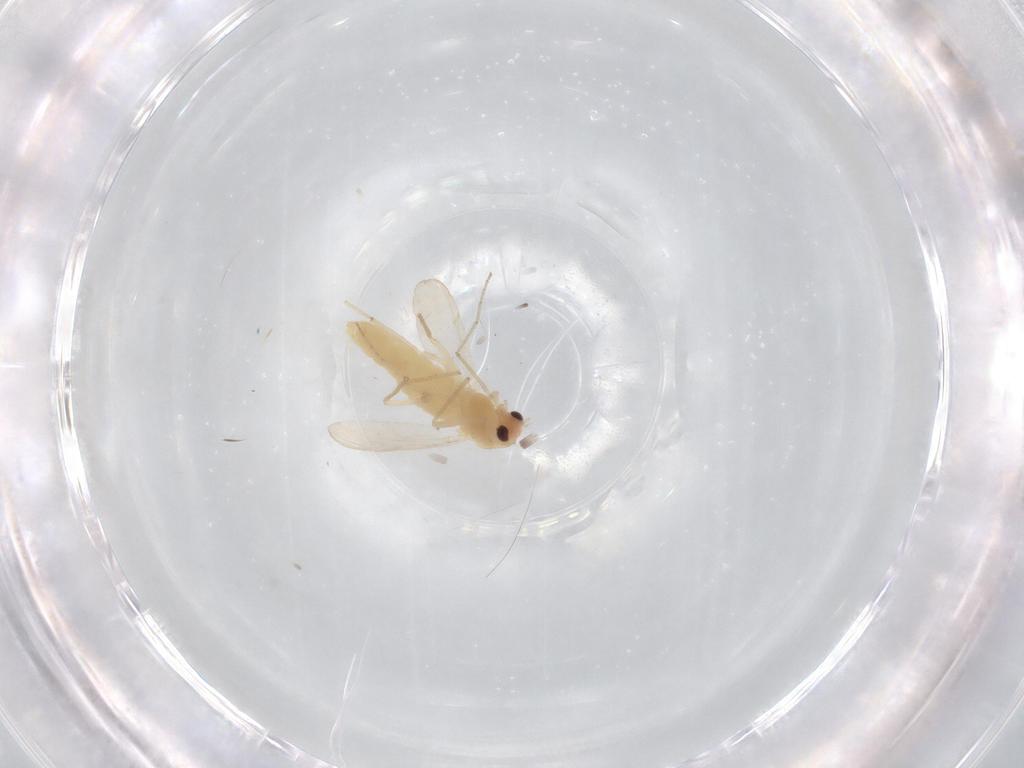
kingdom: Animalia
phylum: Arthropoda
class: Insecta
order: Diptera
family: Chironomidae
